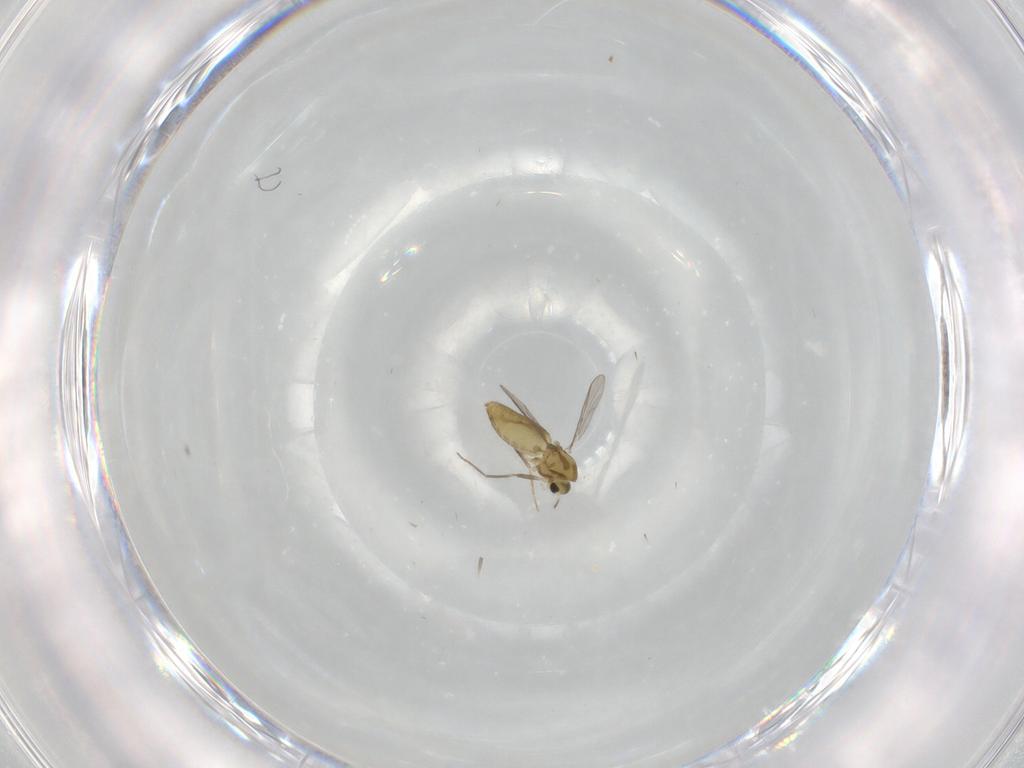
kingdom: Animalia
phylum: Arthropoda
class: Insecta
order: Diptera
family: Chironomidae
